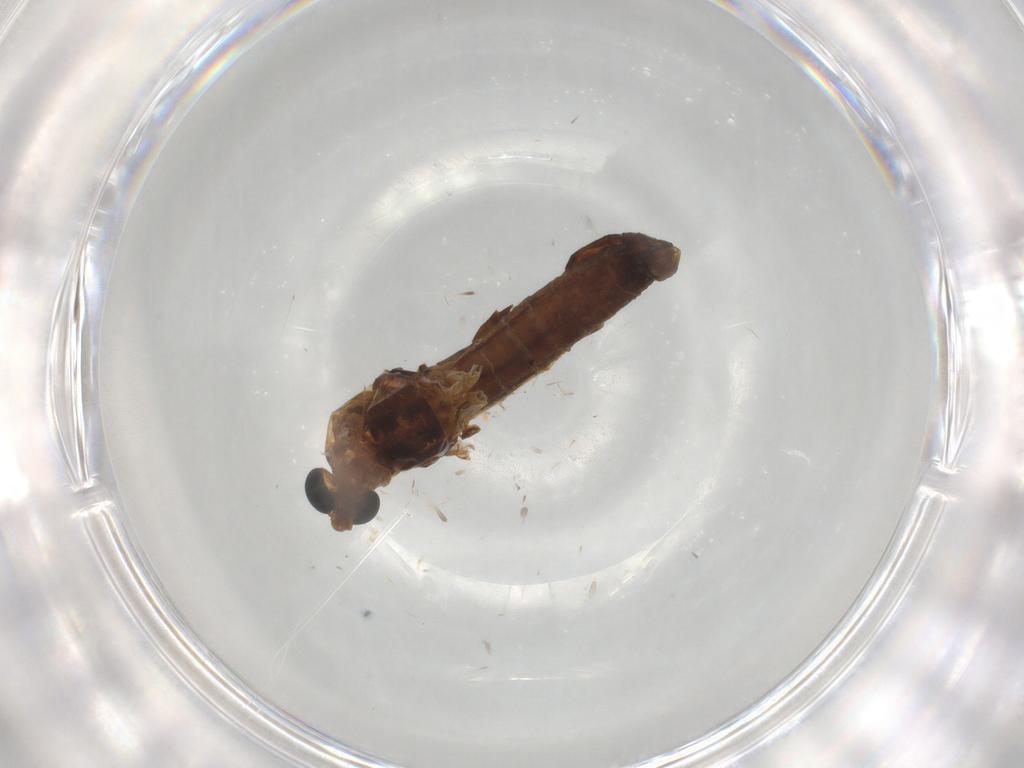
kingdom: Animalia
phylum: Arthropoda
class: Insecta
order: Diptera
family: Chironomidae
